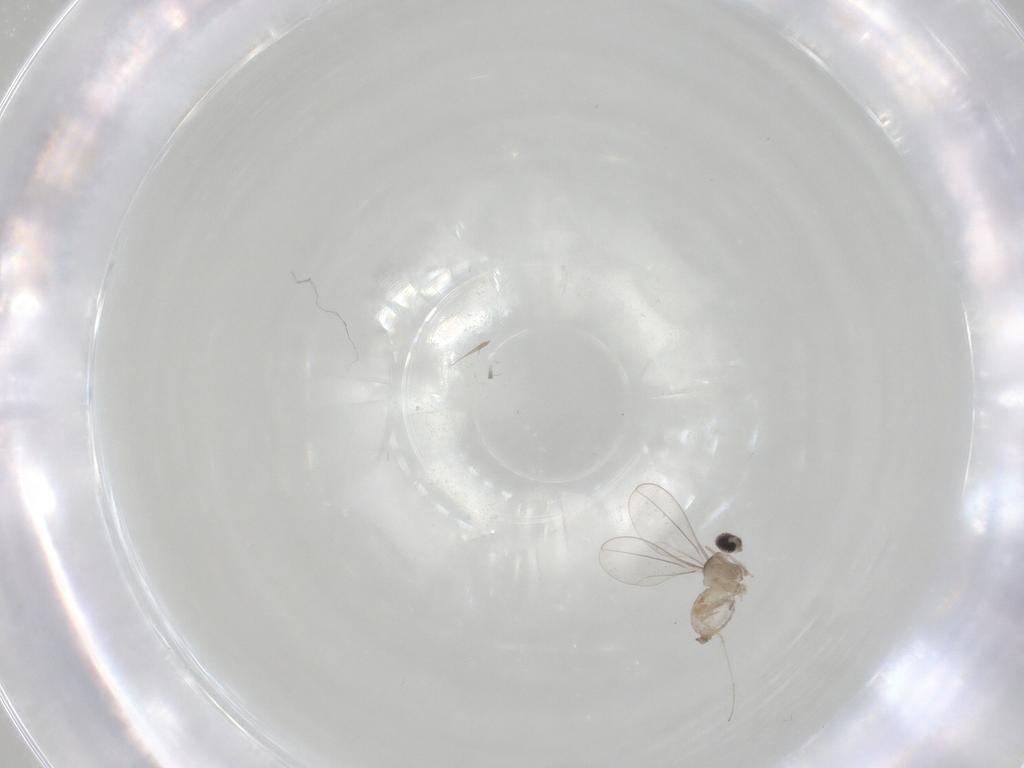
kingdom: Animalia
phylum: Arthropoda
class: Insecta
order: Diptera
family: Cecidomyiidae
